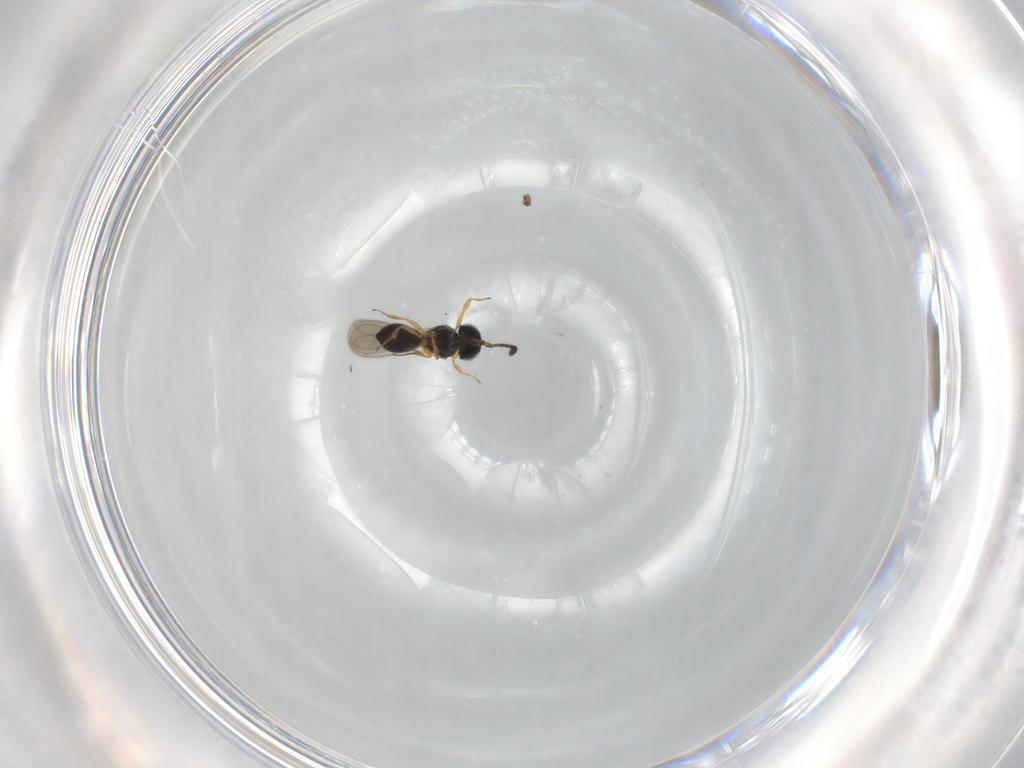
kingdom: Animalia
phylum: Arthropoda
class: Insecta
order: Hymenoptera
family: Scelionidae
